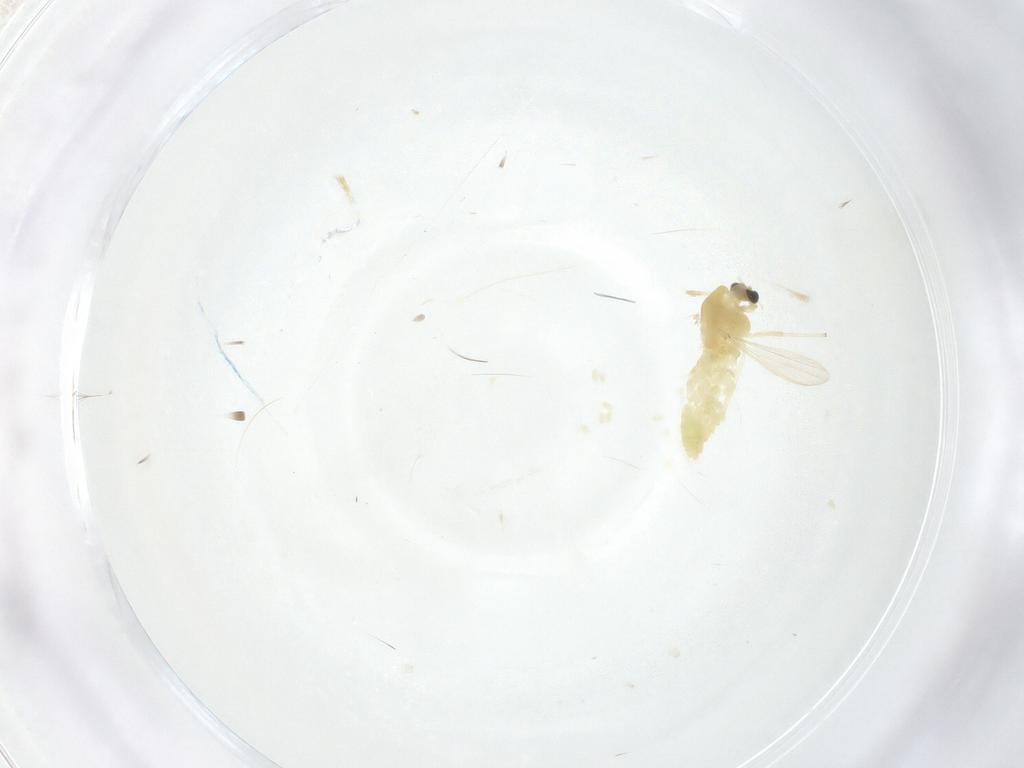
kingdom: Animalia
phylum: Arthropoda
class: Insecta
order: Diptera
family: Chironomidae
